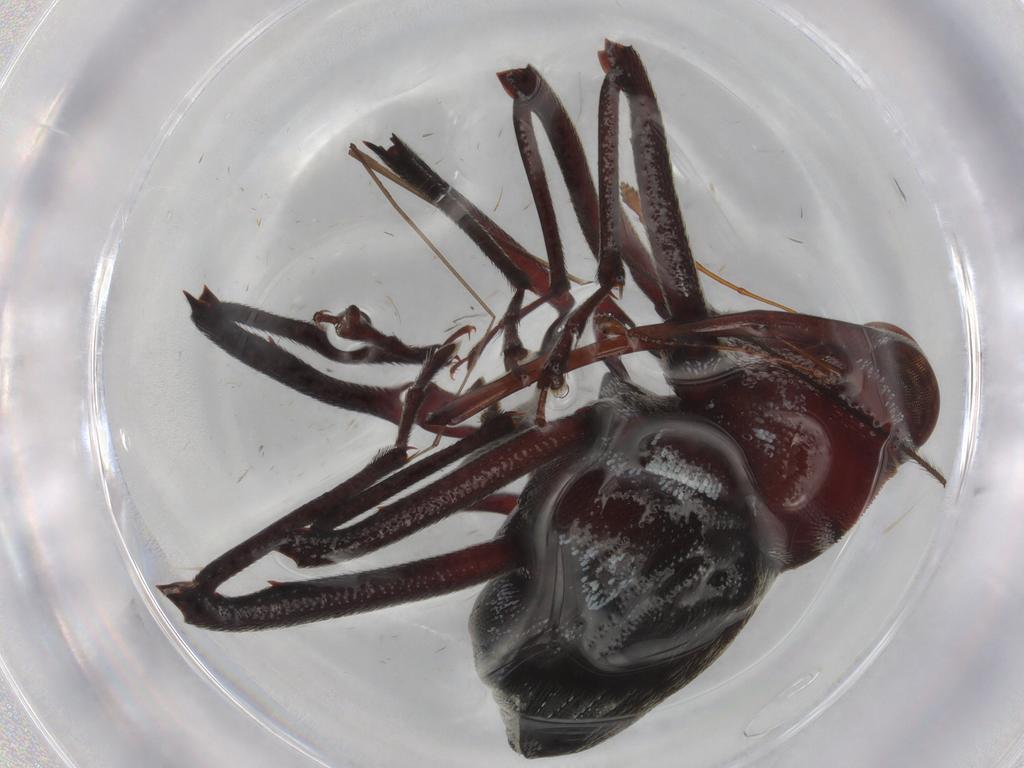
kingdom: Animalia
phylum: Arthropoda
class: Insecta
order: Coleoptera
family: Curculionidae
